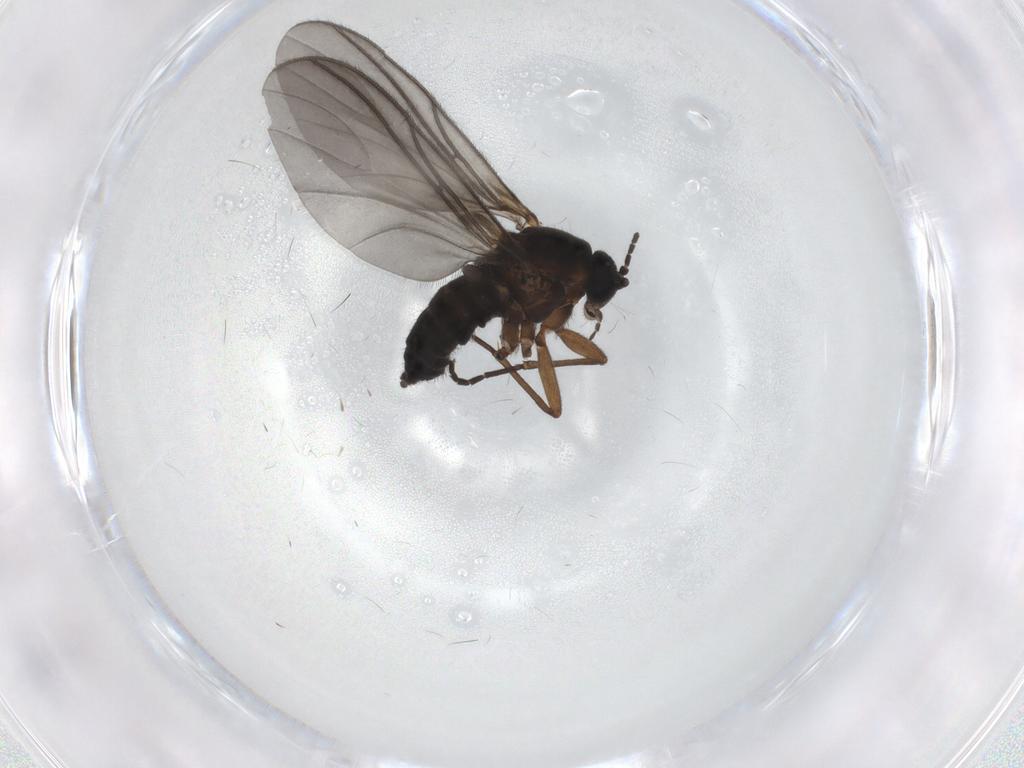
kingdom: Animalia
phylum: Arthropoda
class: Insecta
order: Diptera
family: Sciaridae
